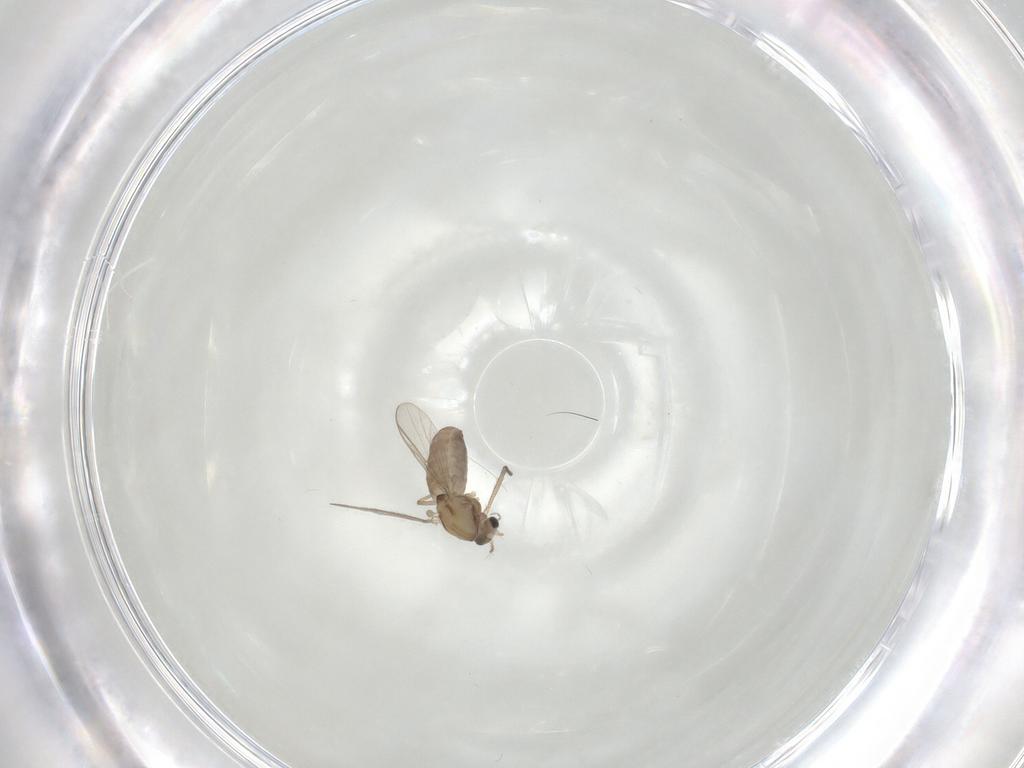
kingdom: Animalia
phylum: Arthropoda
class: Insecta
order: Diptera
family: Chironomidae
